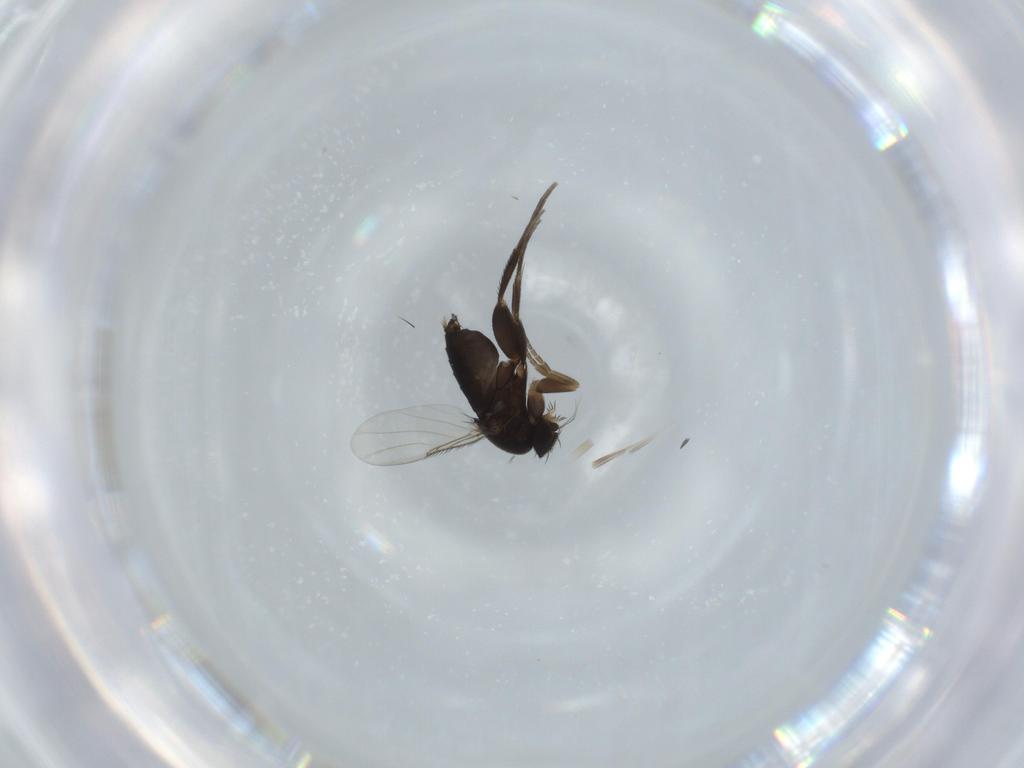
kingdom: Animalia
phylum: Arthropoda
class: Insecta
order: Diptera
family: Phoridae
